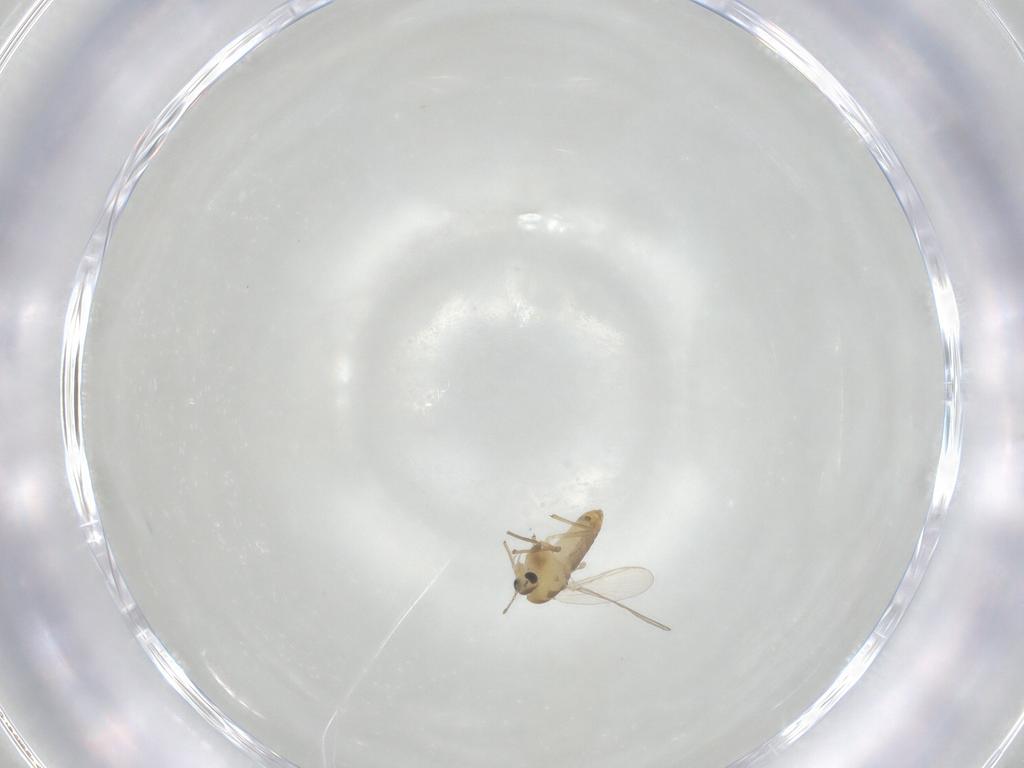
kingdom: Animalia
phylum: Arthropoda
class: Insecta
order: Diptera
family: Chironomidae
